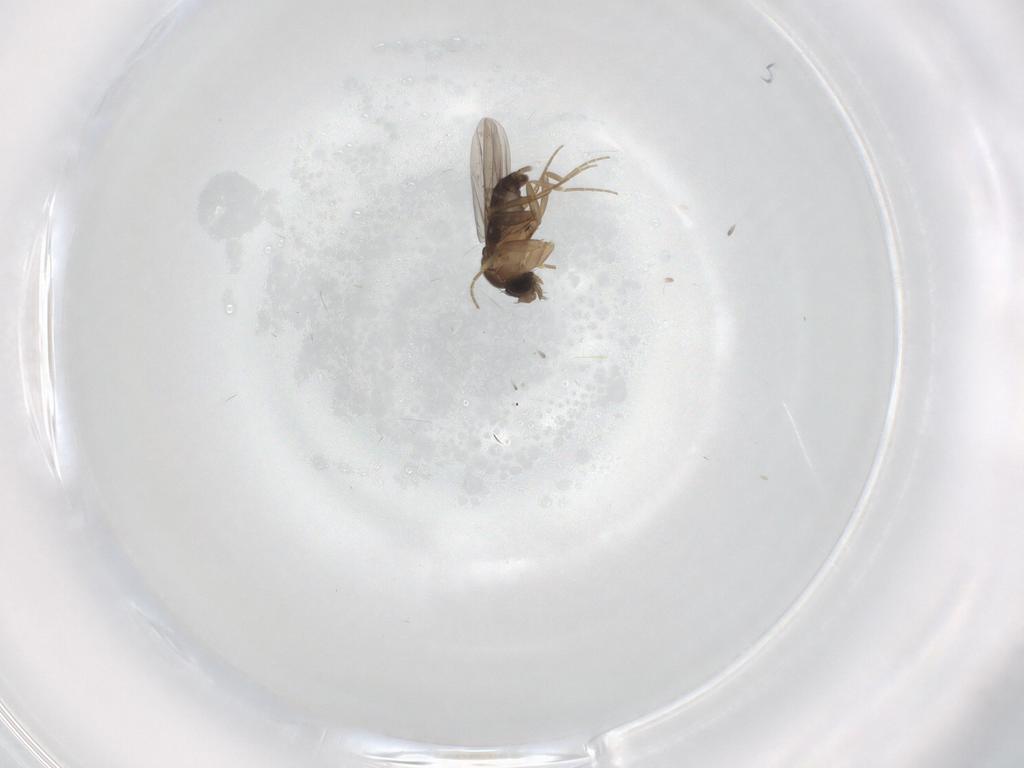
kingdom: Animalia
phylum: Arthropoda
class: Insecta
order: Diptera
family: Phoridae
